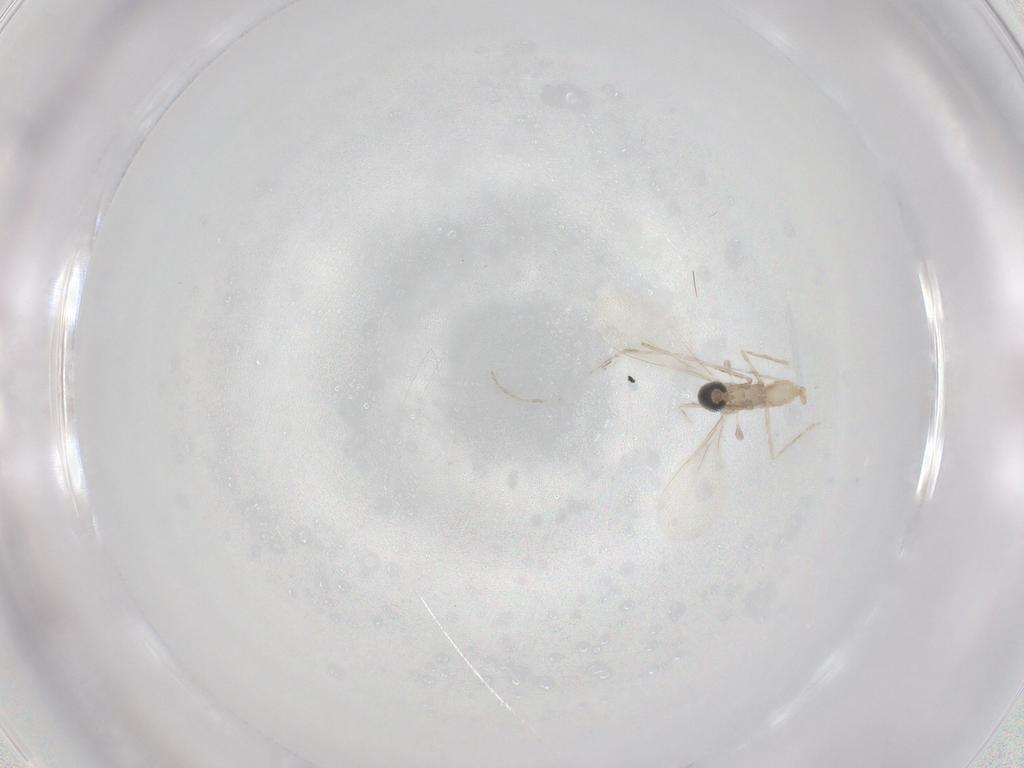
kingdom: Animalia
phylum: Arthropoda
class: Insecta
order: Diptera
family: Cecidomyiidae
